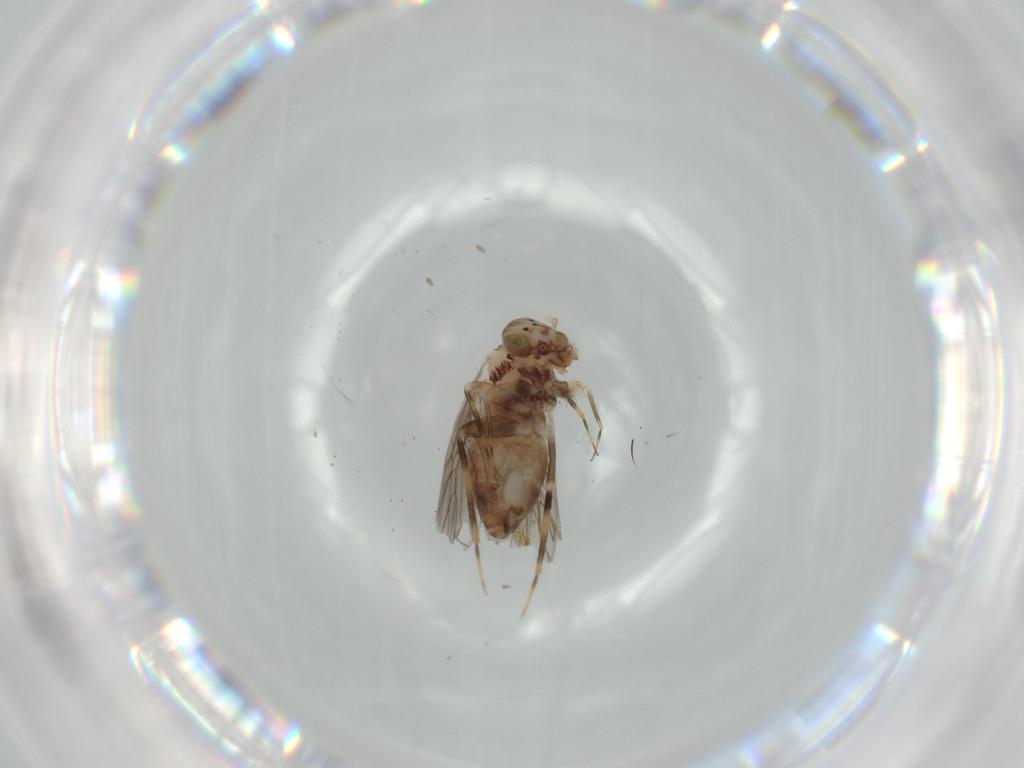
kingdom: Animalia
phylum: Arthropoda
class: Insecta
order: Psocodea
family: Lepidopsocidae
